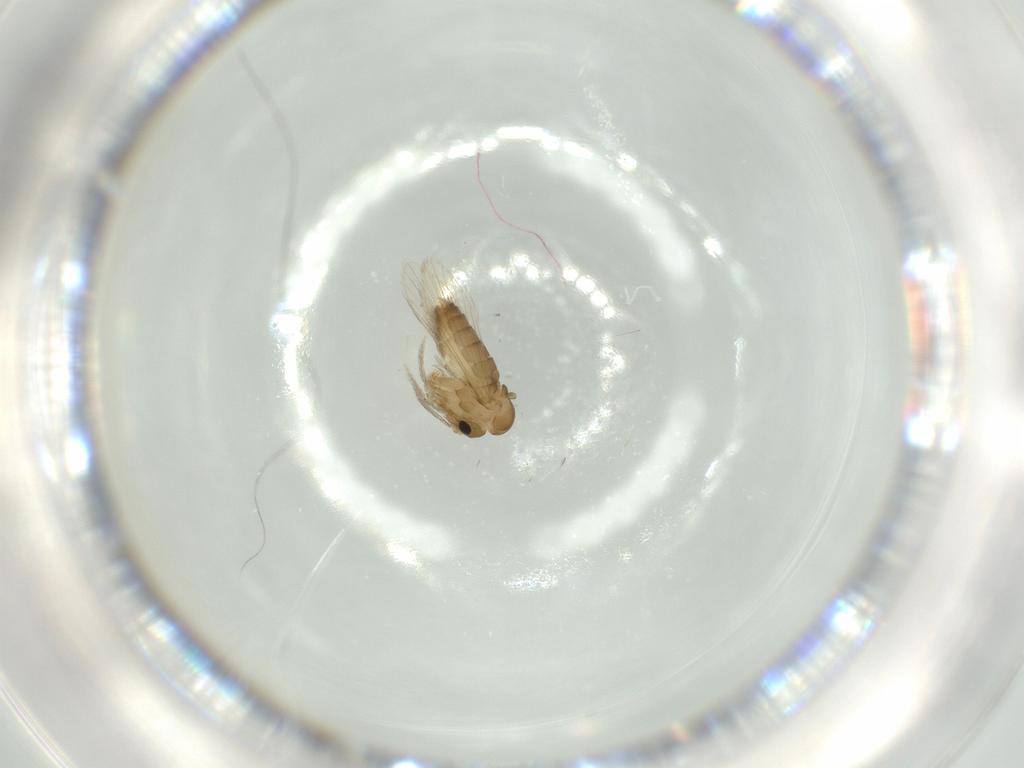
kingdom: Animalia
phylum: Arthropoda
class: Insecta
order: Diptera
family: Psychodidae
